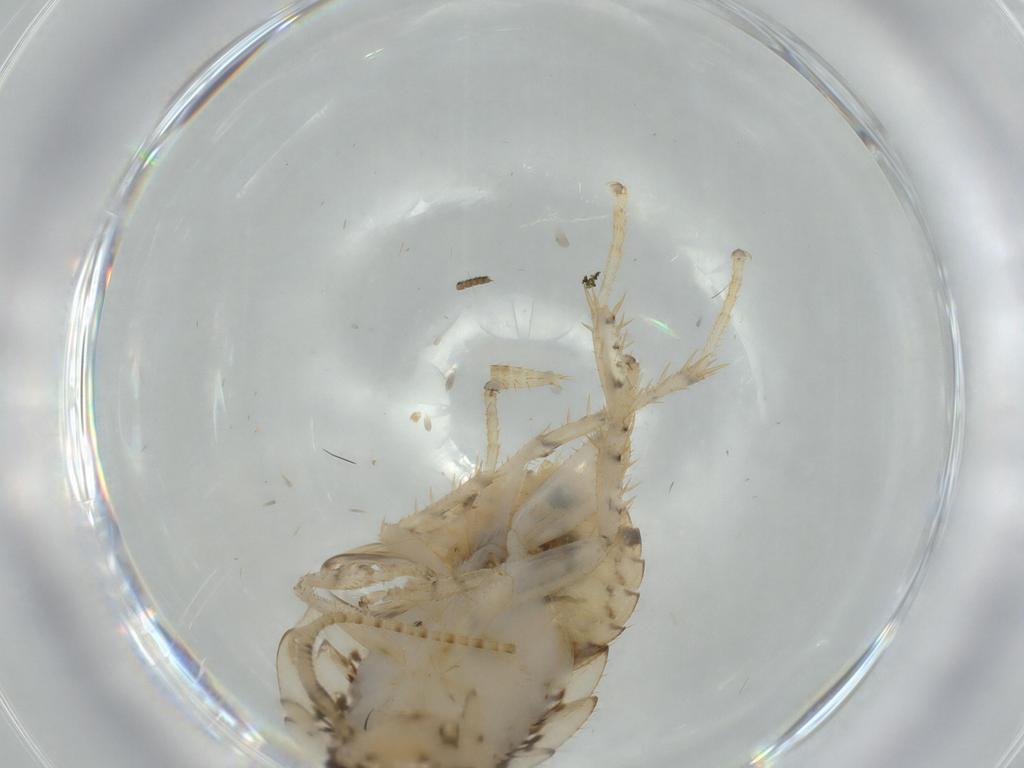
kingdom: Animalia
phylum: Arthropoda
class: Insecta
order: Blattodea
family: Ectobiidae
